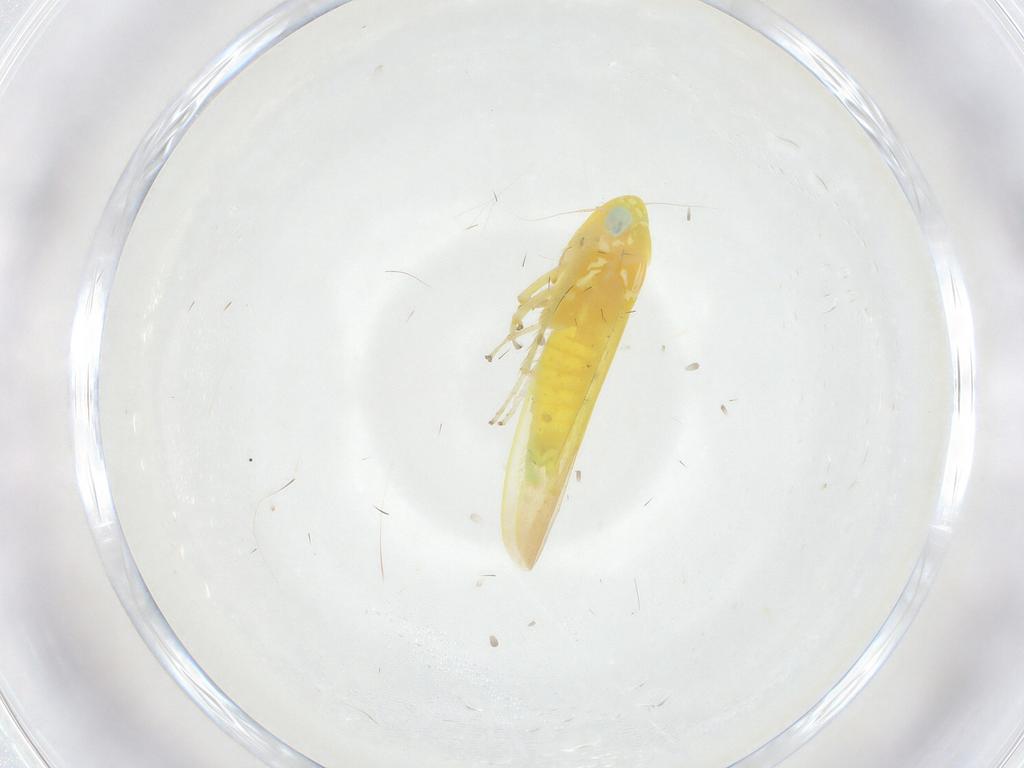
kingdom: Animalia
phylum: Arthropoda
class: Insecta
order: Hemiptera
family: Cicadellidae
